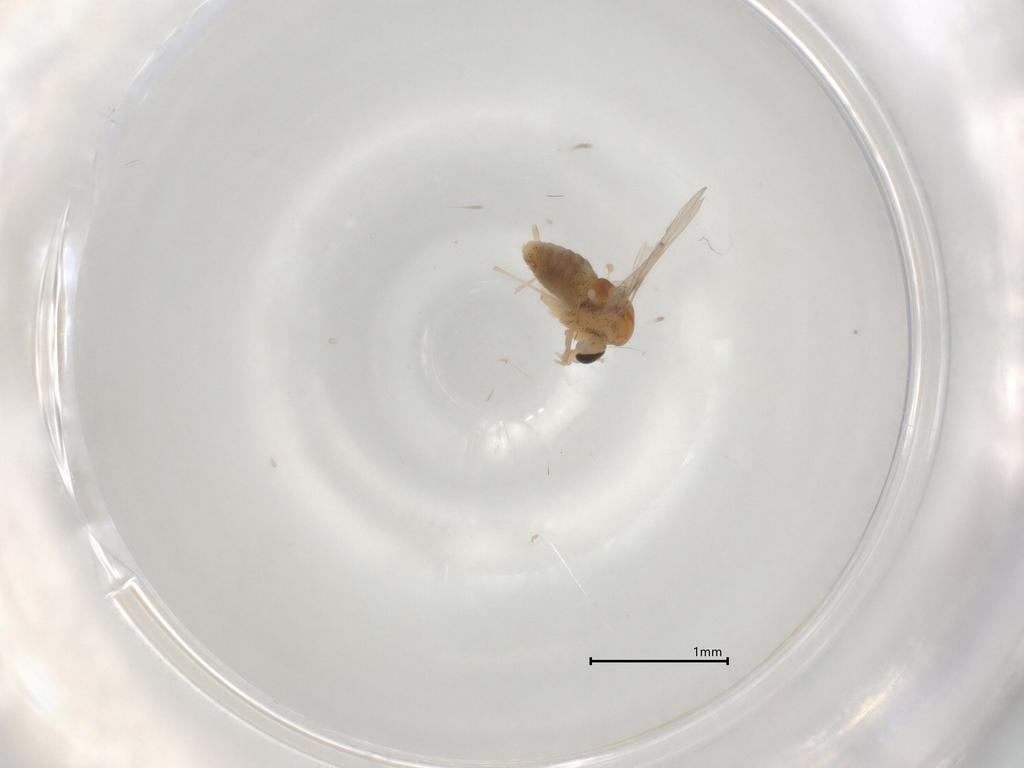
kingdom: Animalia
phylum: Arthropoda
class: Insecta
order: Diptera
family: Chironomidae
